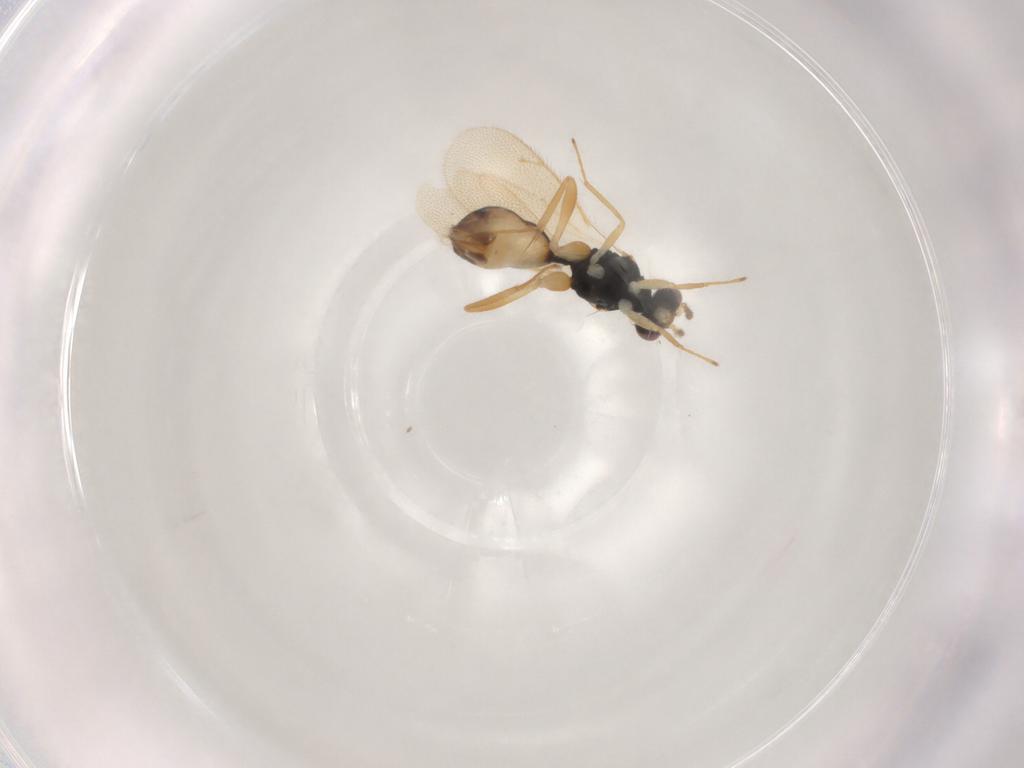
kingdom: Animalia
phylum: Arthropoda
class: Insecta
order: Hymenoptera
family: Eulophidae
